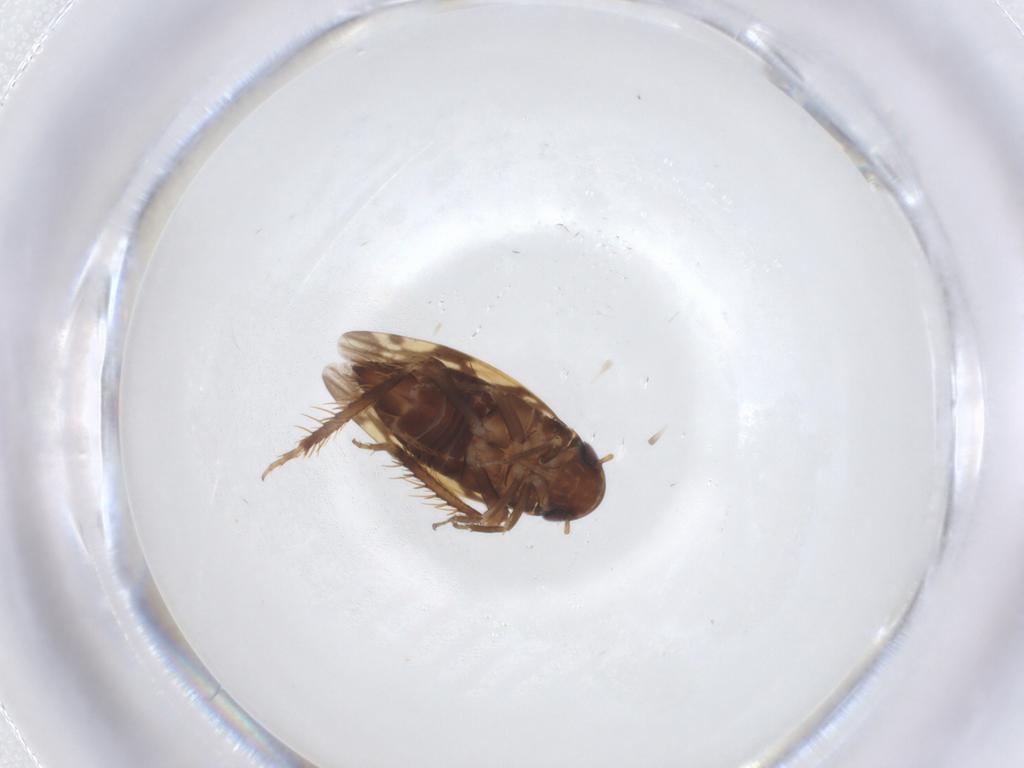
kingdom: Animalia
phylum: Arthropoda
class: Insecta
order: Hemiptera
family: Cicadellidae
